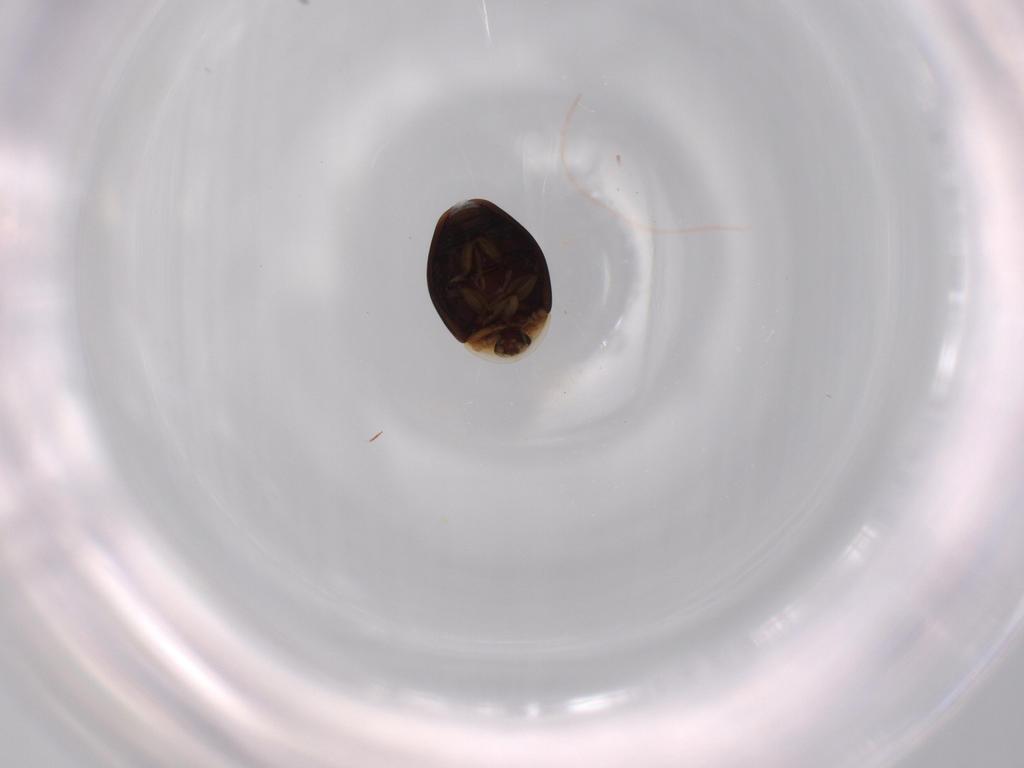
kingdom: Animalia
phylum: Arthropoda
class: Insecta
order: Coleoptera
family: Corylophidae
